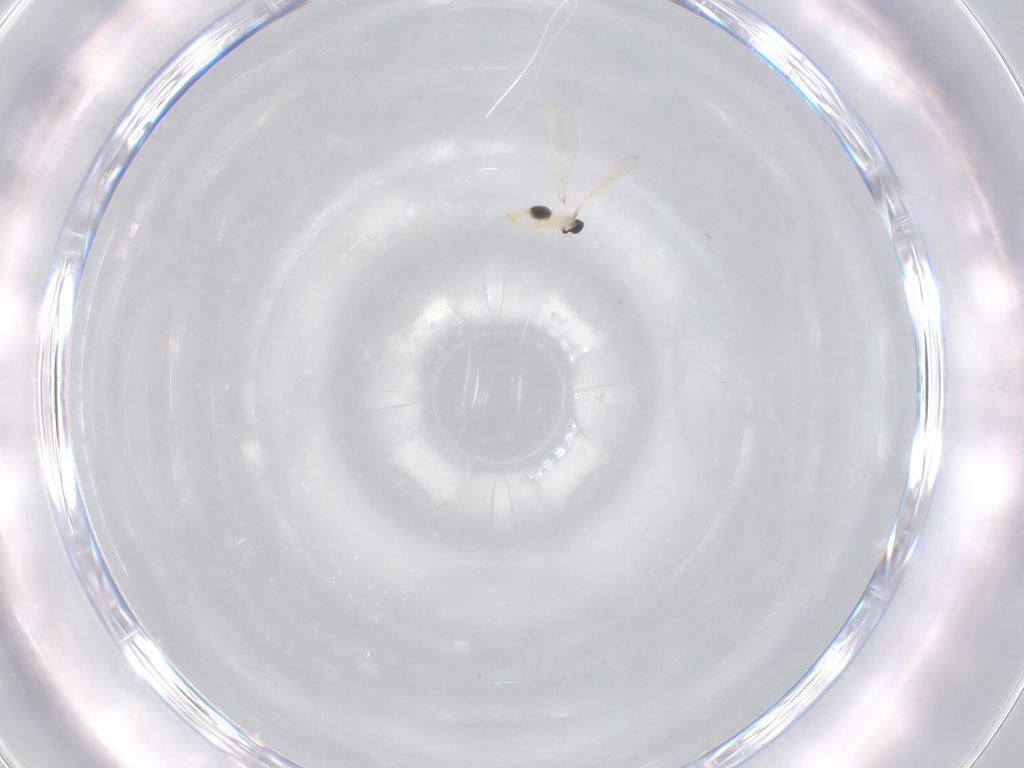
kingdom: Animalia
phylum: Arthropoda
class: Insecta
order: Diptera
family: Cecidomyiidae
